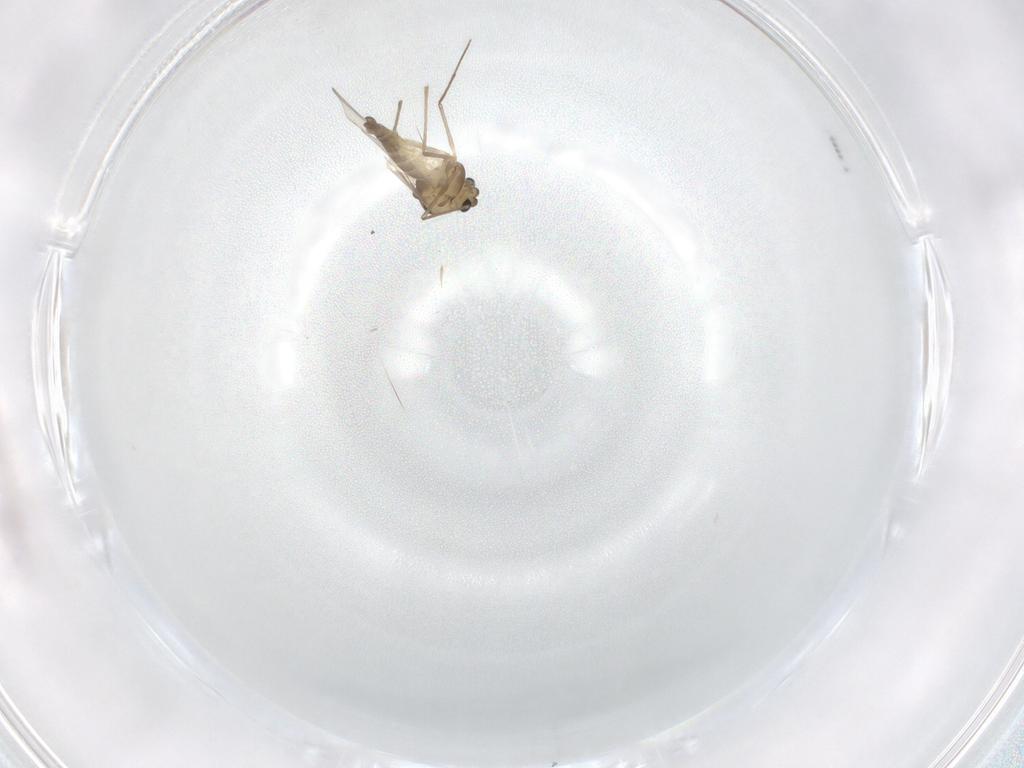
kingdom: Animalia
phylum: Arthropoda
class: Insecta
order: Diptera
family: Chironomidae
